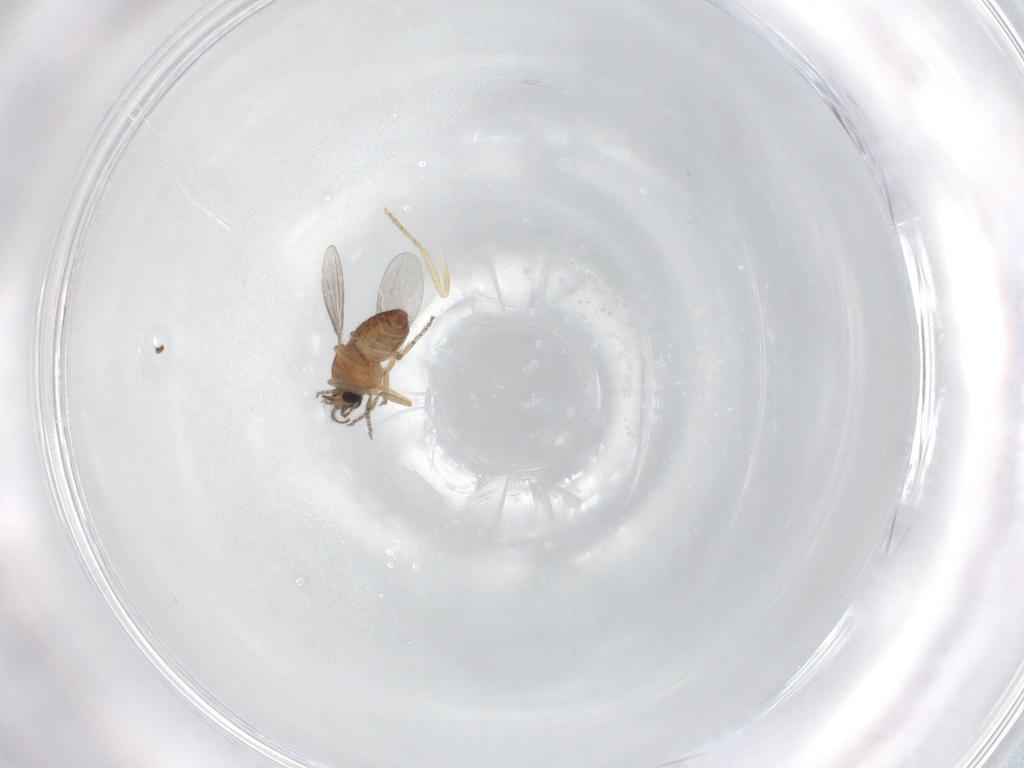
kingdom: Animalia
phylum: Arthropoda
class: Insecta
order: Diptera
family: Ceratopogonidae
